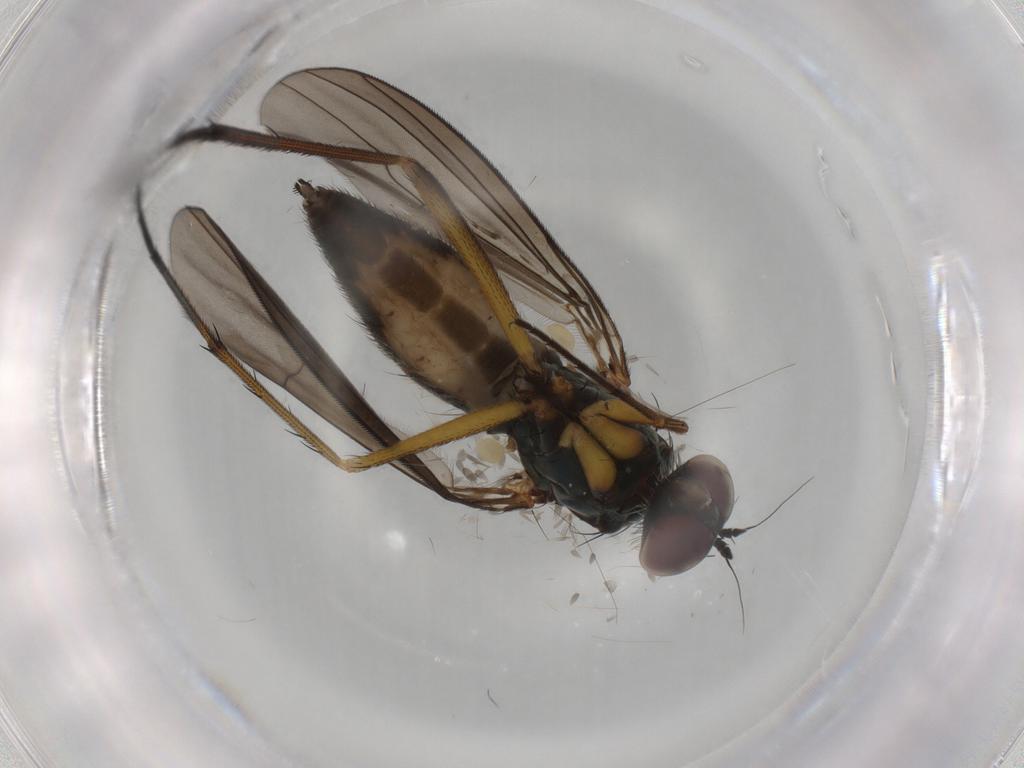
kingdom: Animalia
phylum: Arthropoda
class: Insecta
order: Diptera
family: Dolichopodidae
